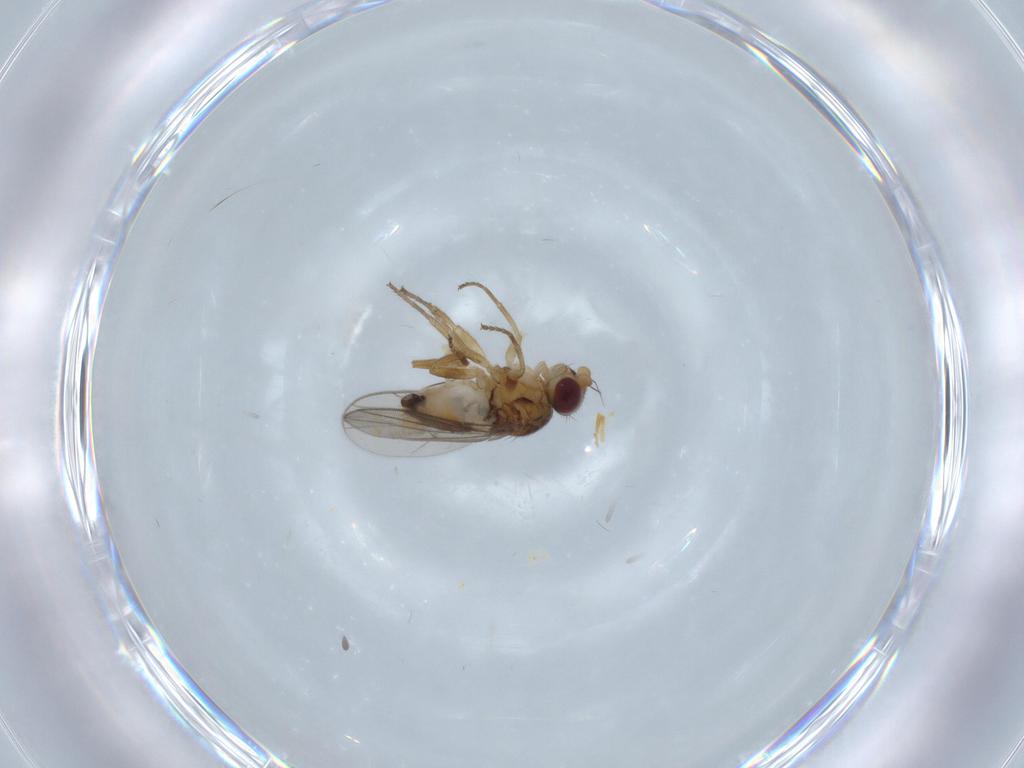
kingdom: Animalia
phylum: Arthropoda
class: Insecta
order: Diptera
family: Chloropidae
